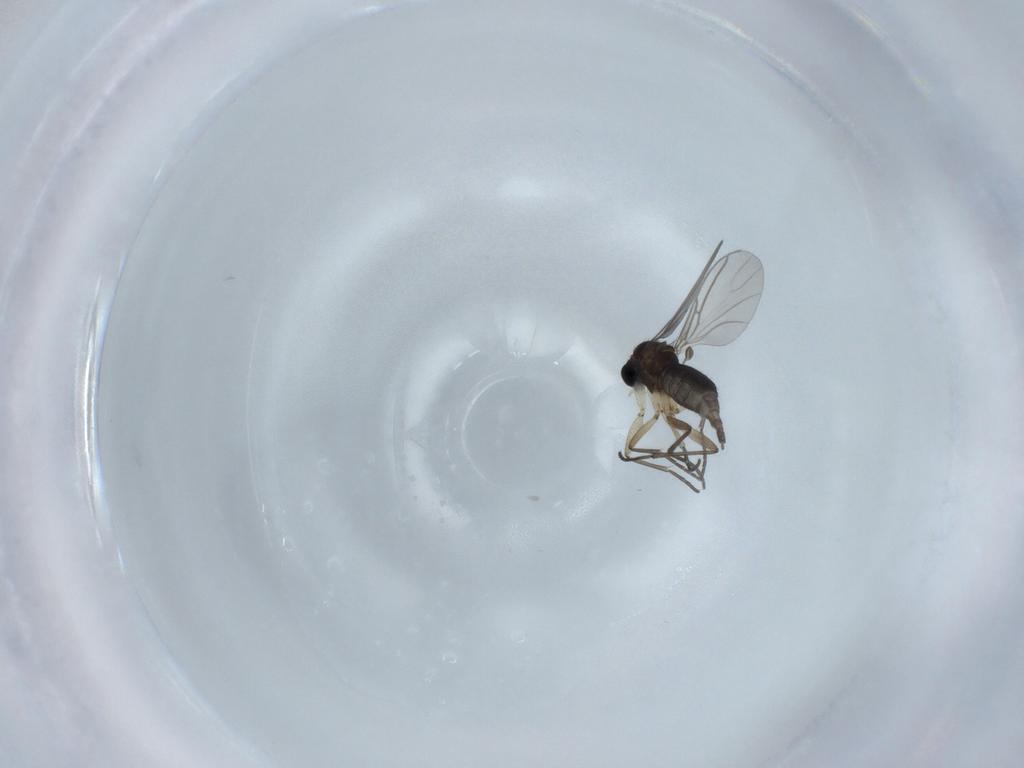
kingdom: Animalia
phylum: Arthropoda
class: Insecta
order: Diptera
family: Sciaridae
